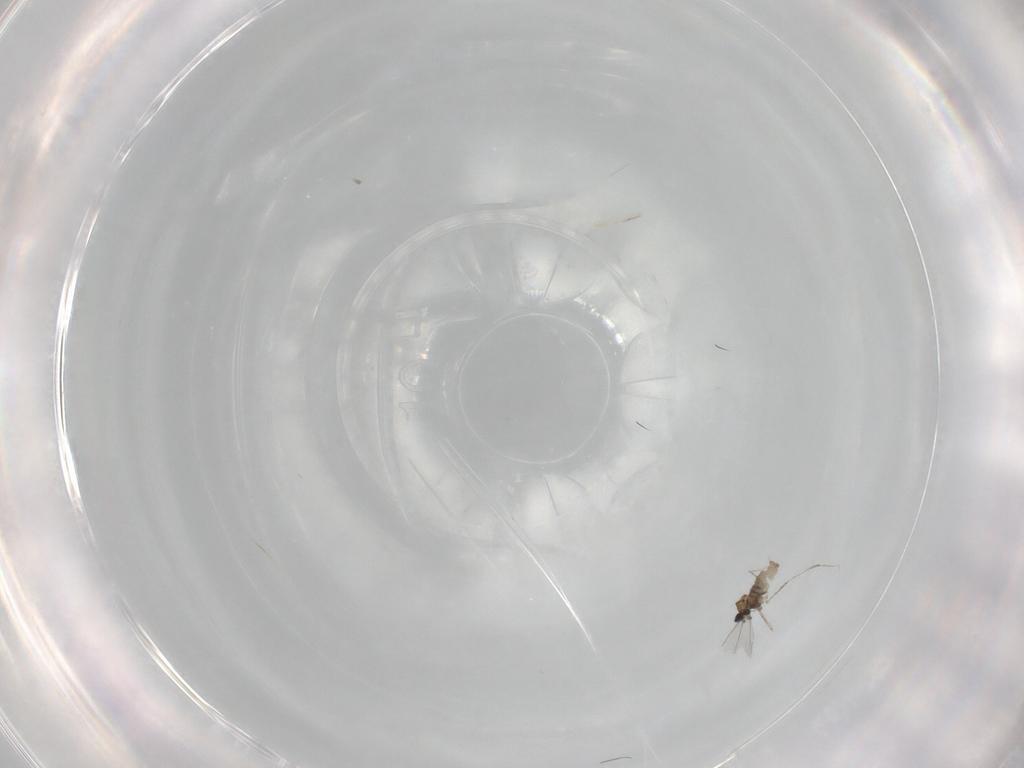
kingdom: Animalia
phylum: Arthropoda
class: Insecta
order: Diptera
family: Cecidomyiidae
